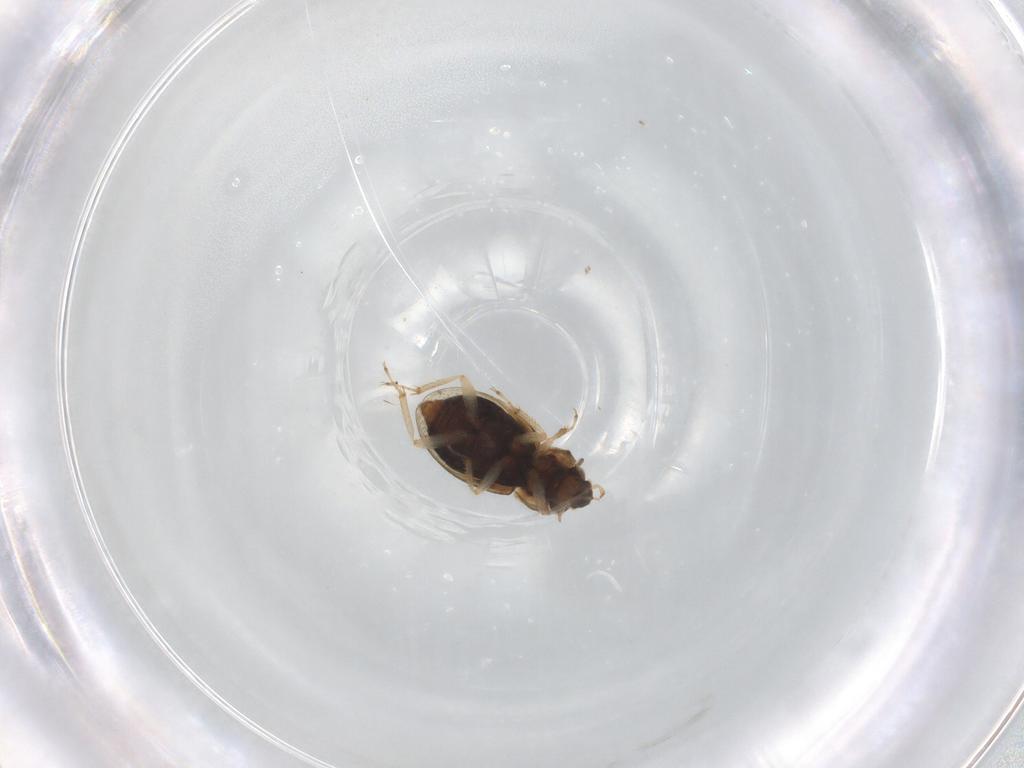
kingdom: Animalia
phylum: Arthropoda
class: Insecta
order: Coleoptera
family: Hydraenidae
